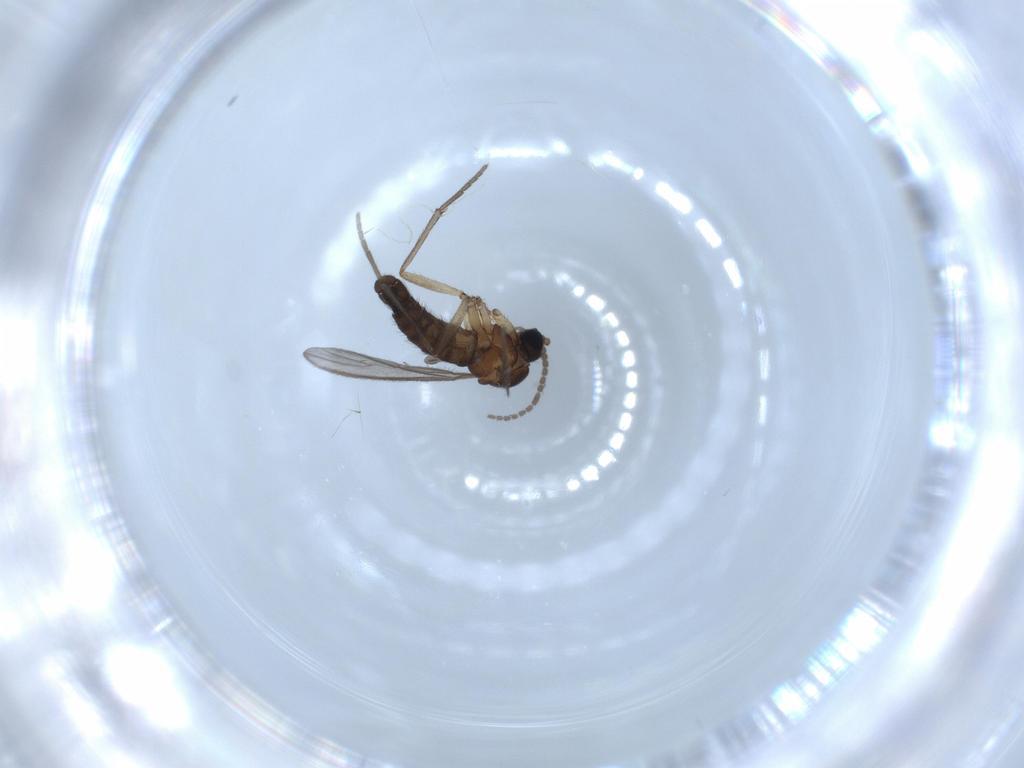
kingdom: Animalia
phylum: Arthropoda
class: Insecta
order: Diptera
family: Sciaridae
